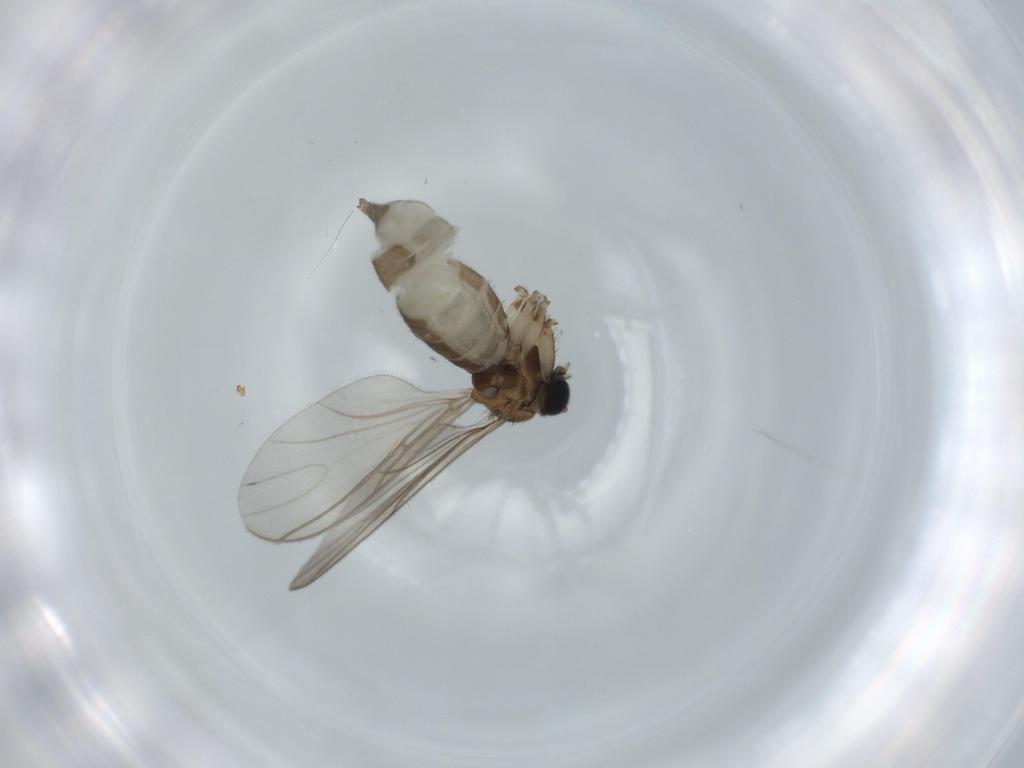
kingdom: Animalia
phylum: Arthropoda
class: Insecta
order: Diptera
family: Sciaridae
